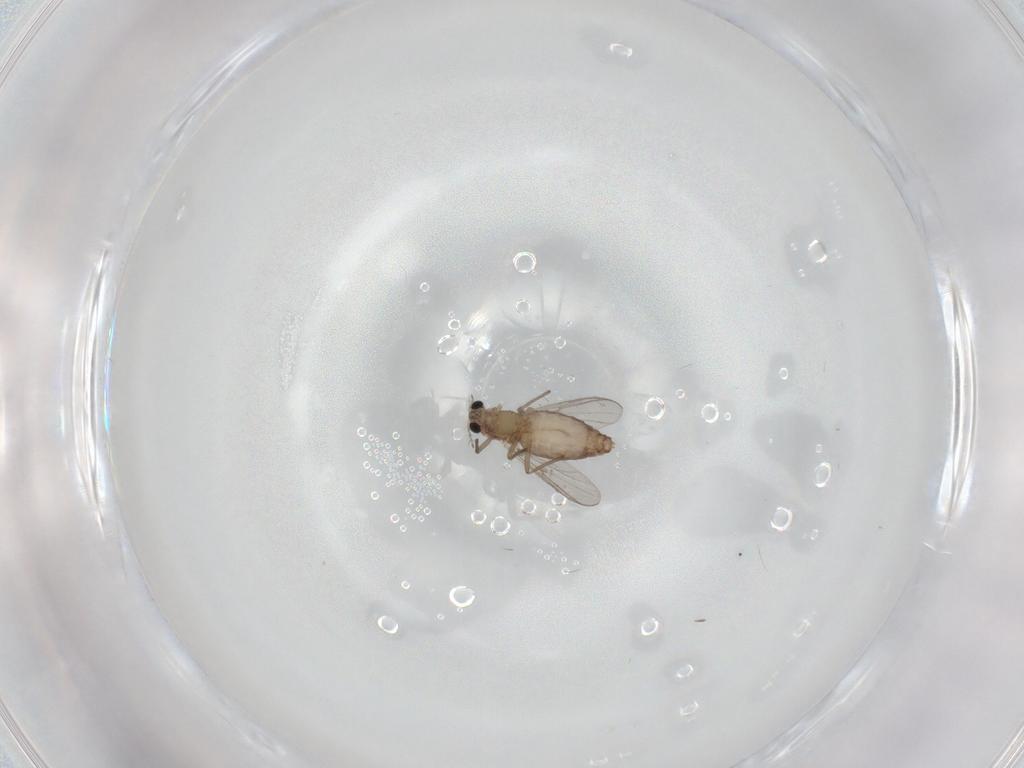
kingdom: Animalia
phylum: Arthropoda
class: Insecta
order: Diptera
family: Chironomidae
